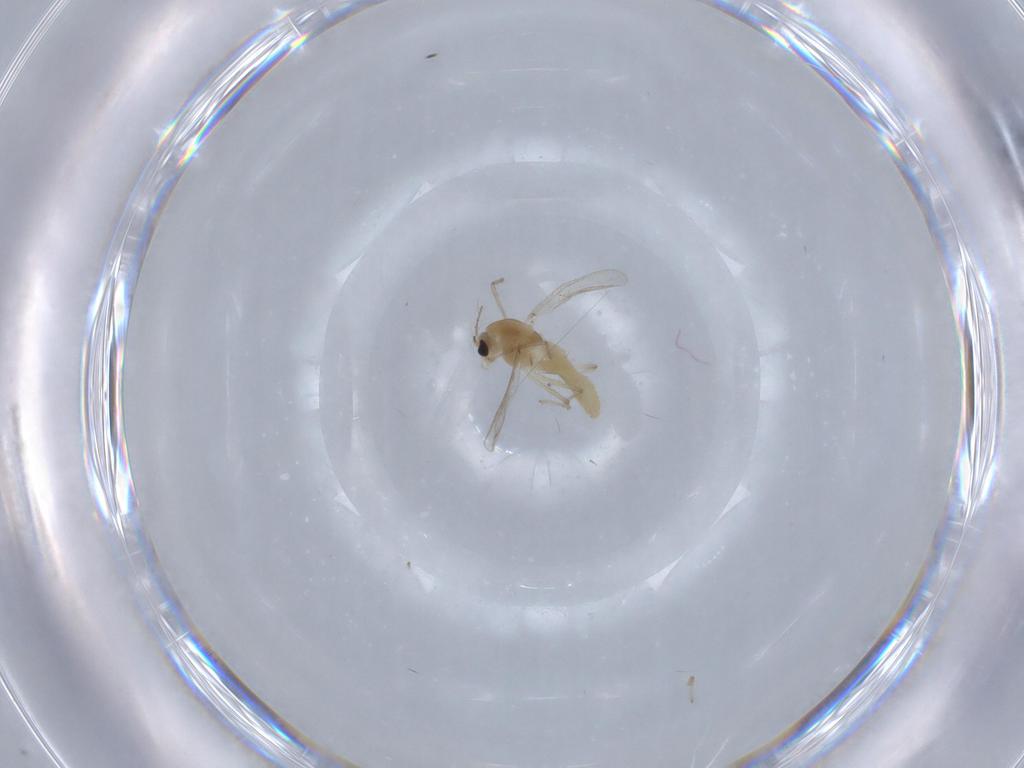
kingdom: Animalia
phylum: Arthropoda
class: Insecta
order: Diptera
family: Chironomidae
